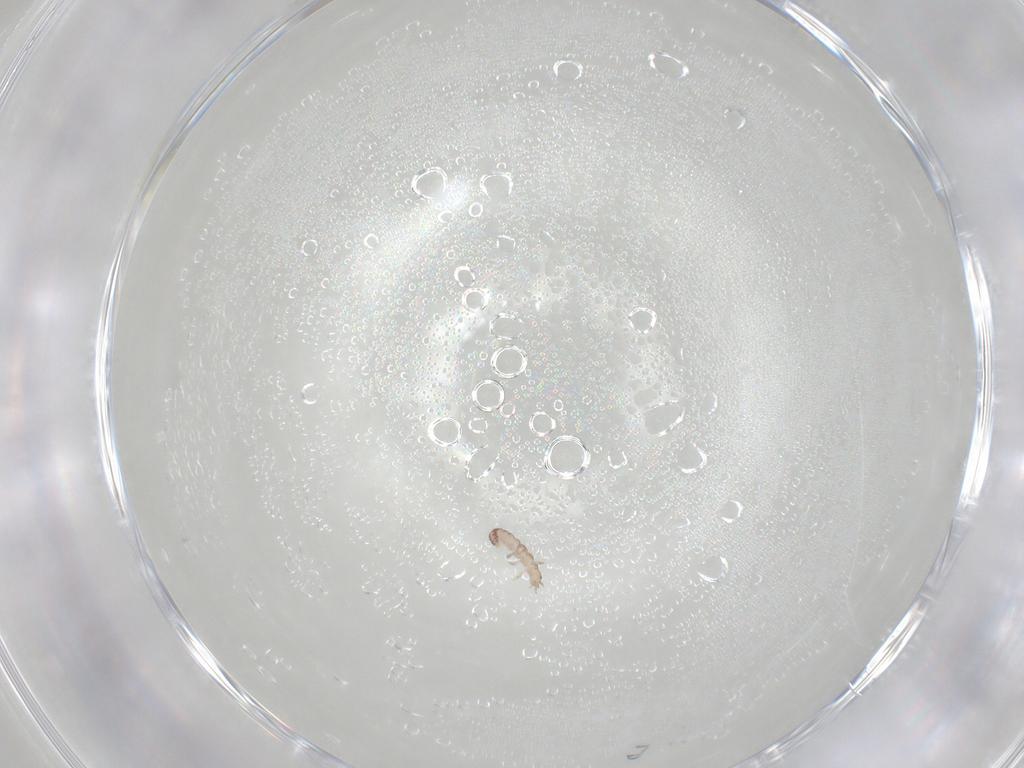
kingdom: Animalia
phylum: Arthropoda
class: Insecta
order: Neuroptera
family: Mantispidae
